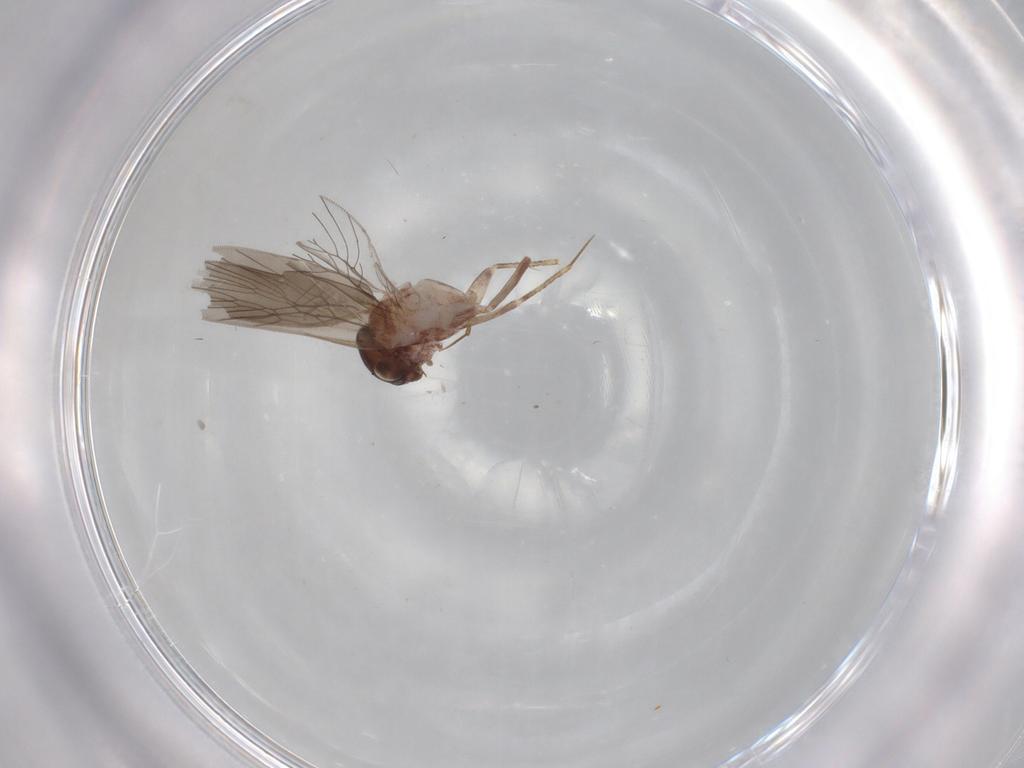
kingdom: Animalia
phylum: Arthropoda
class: Insecta
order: Psocodea
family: Lepidopsocidae
